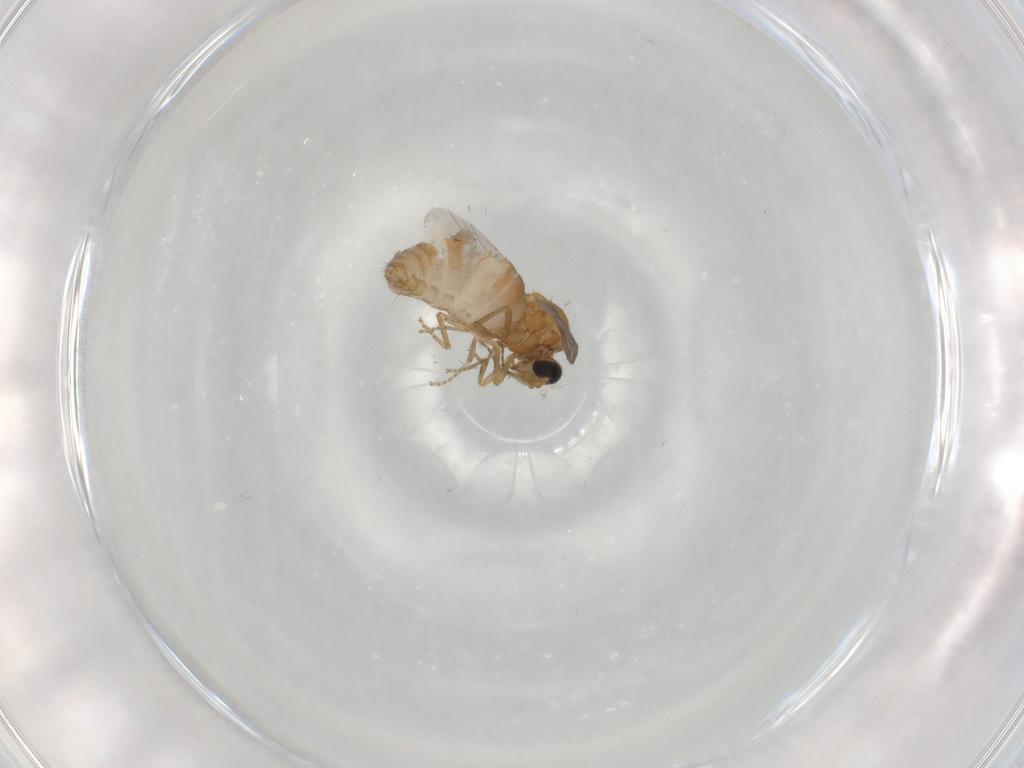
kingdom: Animalia
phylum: Arthropoda
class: Insecta
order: Diptera
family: Ceratopogonidae
